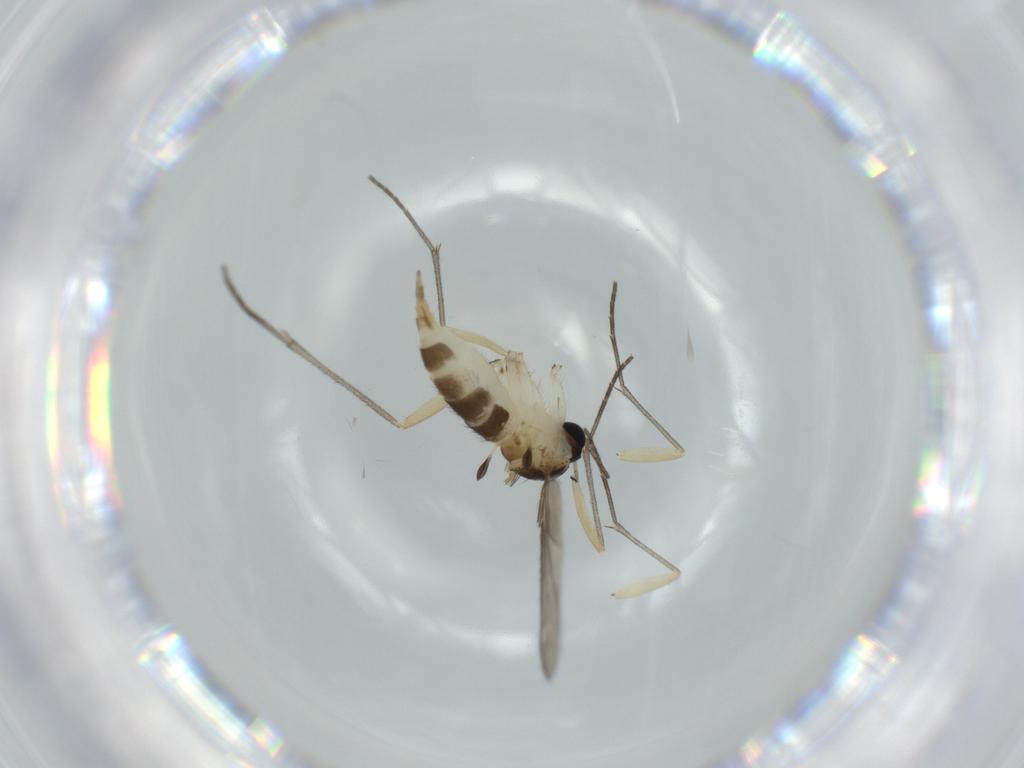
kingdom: Animalia
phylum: Arthropoda
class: Insecta
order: Diptera
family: Sciaridae
